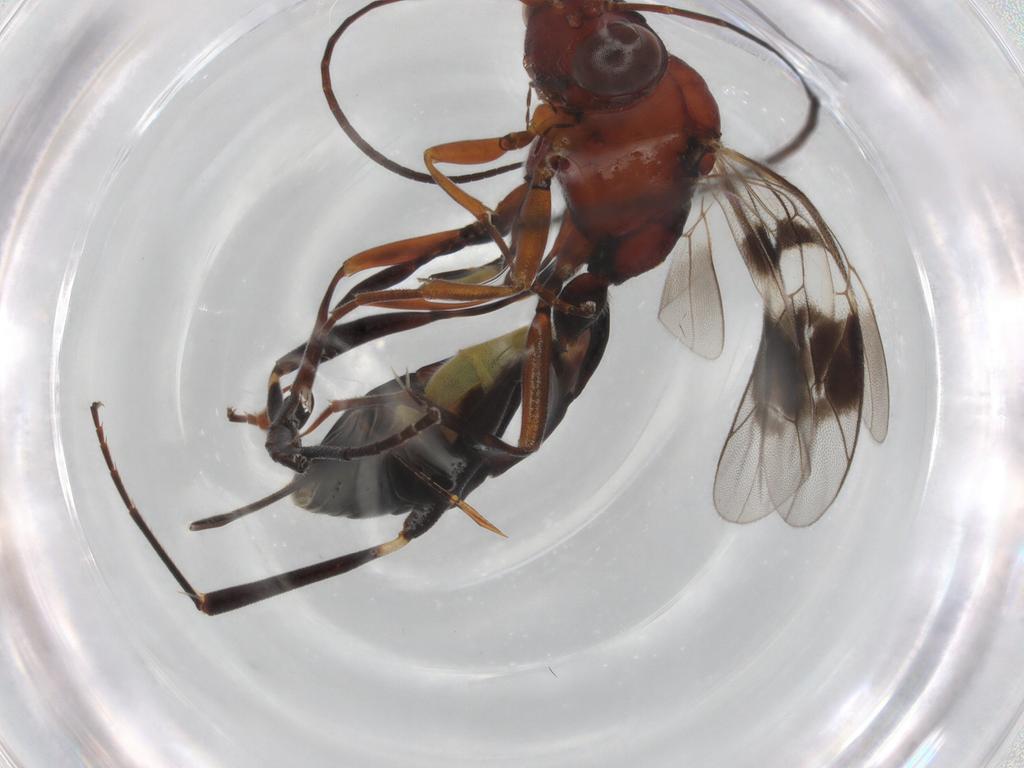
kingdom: Animalia
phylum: Arthropoda
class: Insecta
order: Hymenoptera
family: Ichneumonidae
